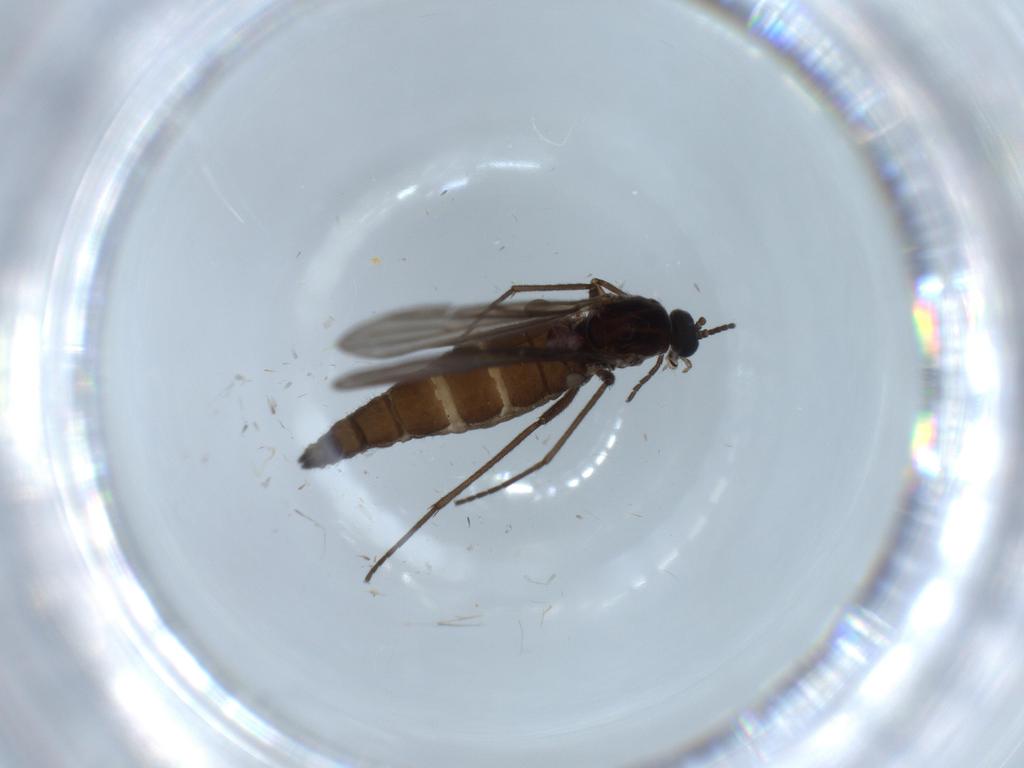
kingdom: Animalia
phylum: Arthropoda
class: Insecta
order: Diptera
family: Sciaridae
